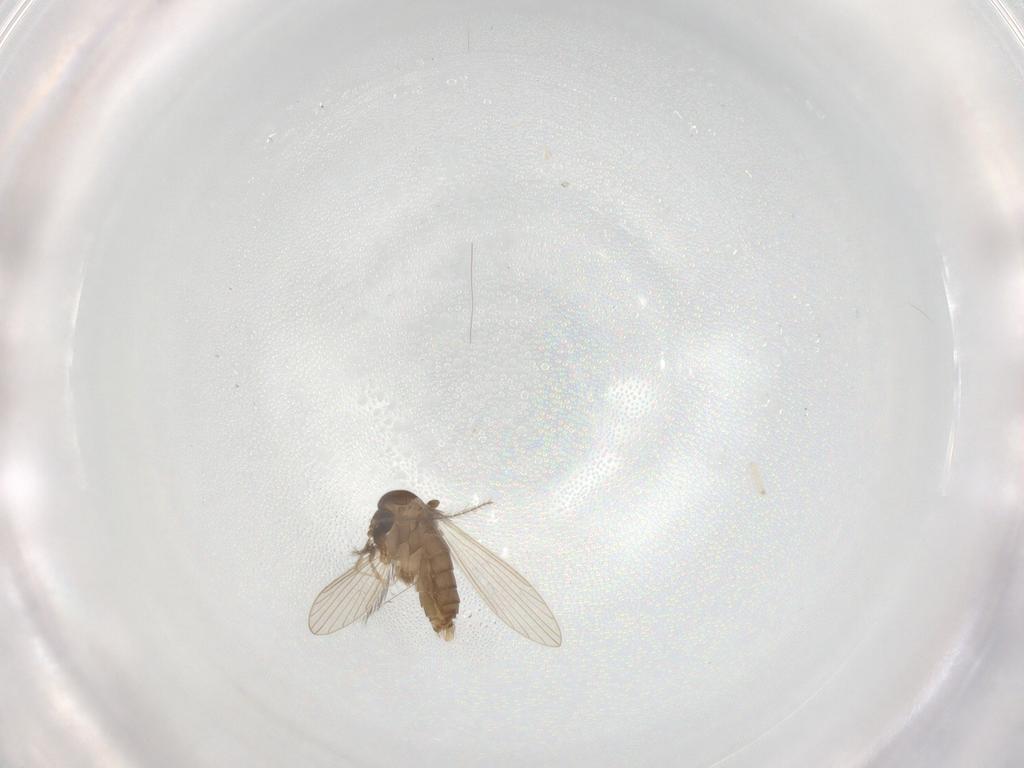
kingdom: Animalia
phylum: Arthropoda
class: Insecta
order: Diptera
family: Psychodidae
